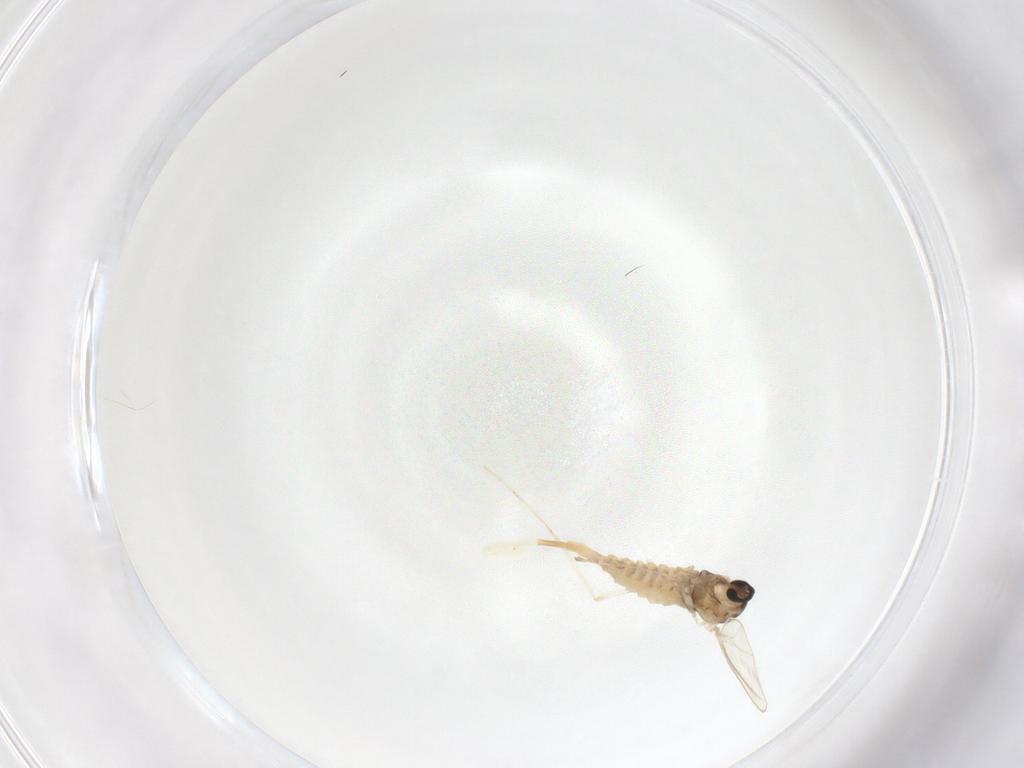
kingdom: Animalia
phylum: Arthropoda
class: Insecta
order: Diptera
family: Cecidomyiidae
